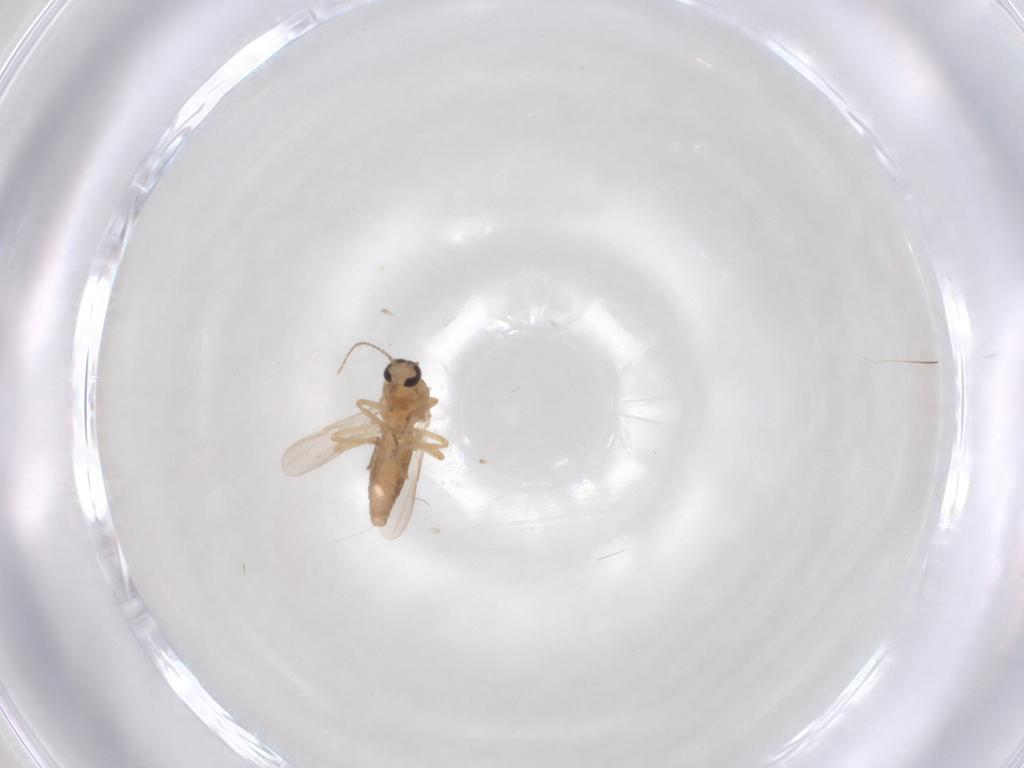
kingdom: Animalia
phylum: Arthropoda
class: Insecta
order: Diptera
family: Ceratopogonidae
